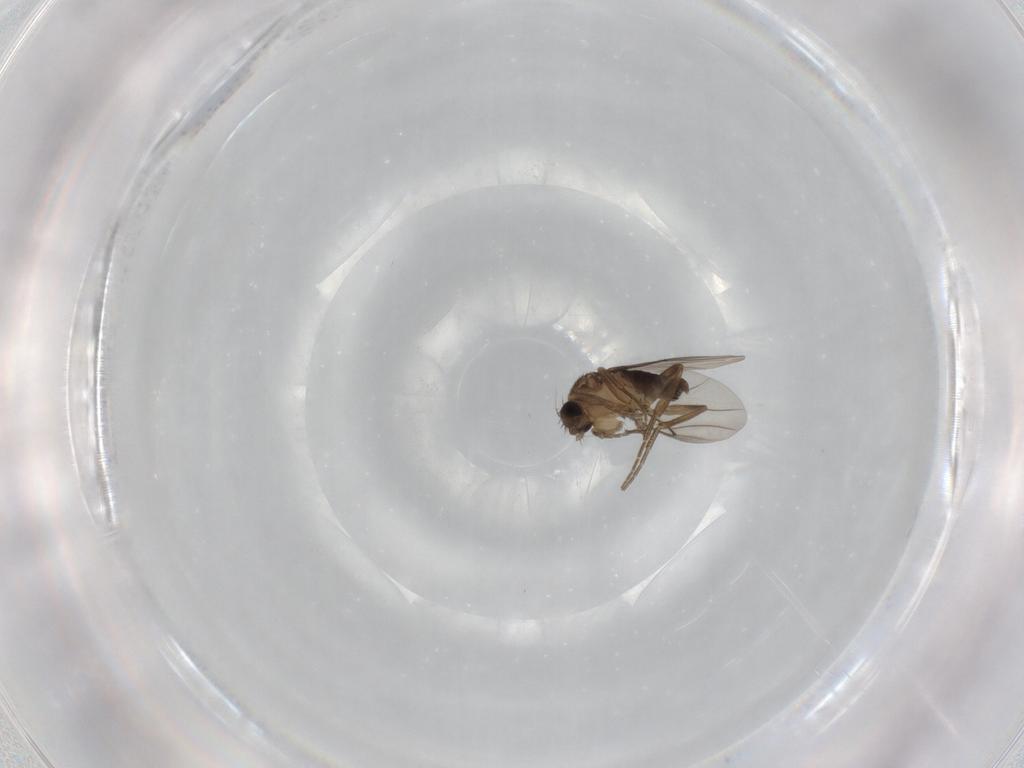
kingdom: Animalia
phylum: Arthropoda
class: Insecta
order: Diptera
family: Phoridae
